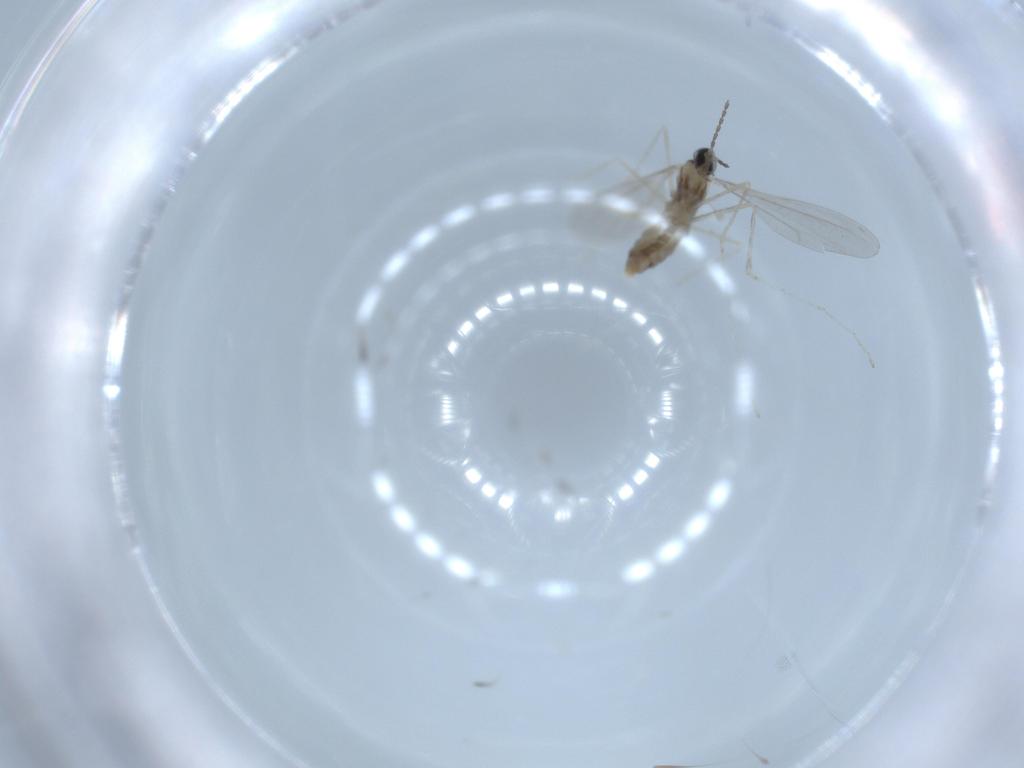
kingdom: Animalia
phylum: Arthropoda
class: Insecta
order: Diptera
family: Cecidomyiidae
